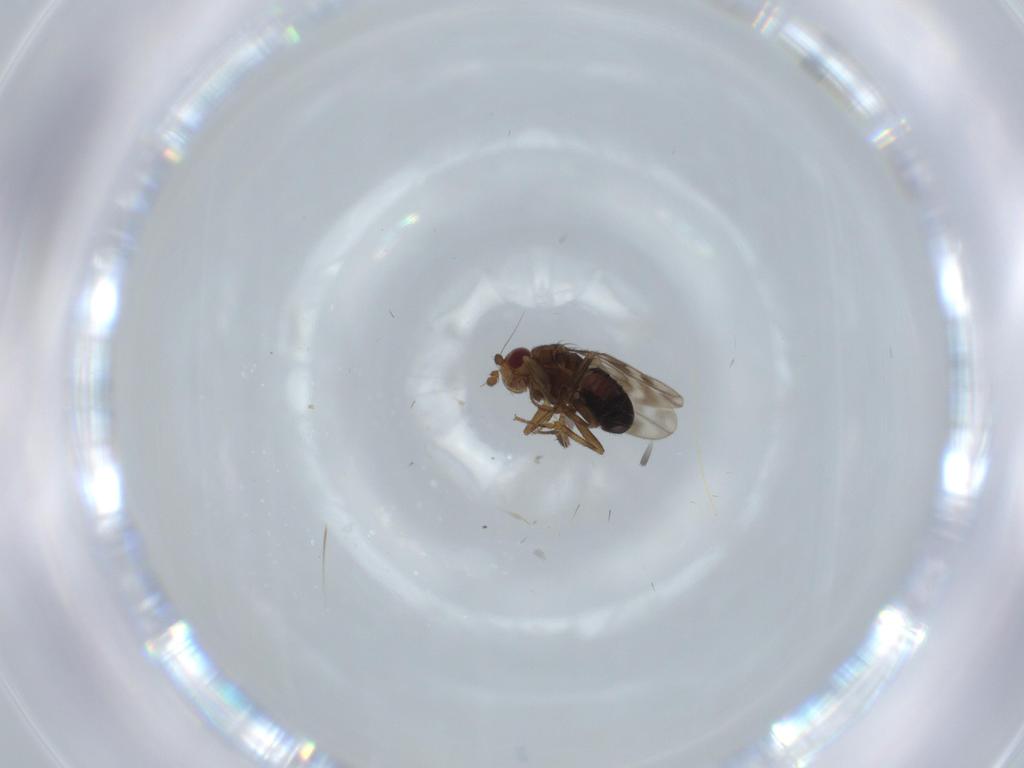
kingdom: Animalia
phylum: Arthropoda
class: Insecta
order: Diptera
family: Sphaeroceridae
